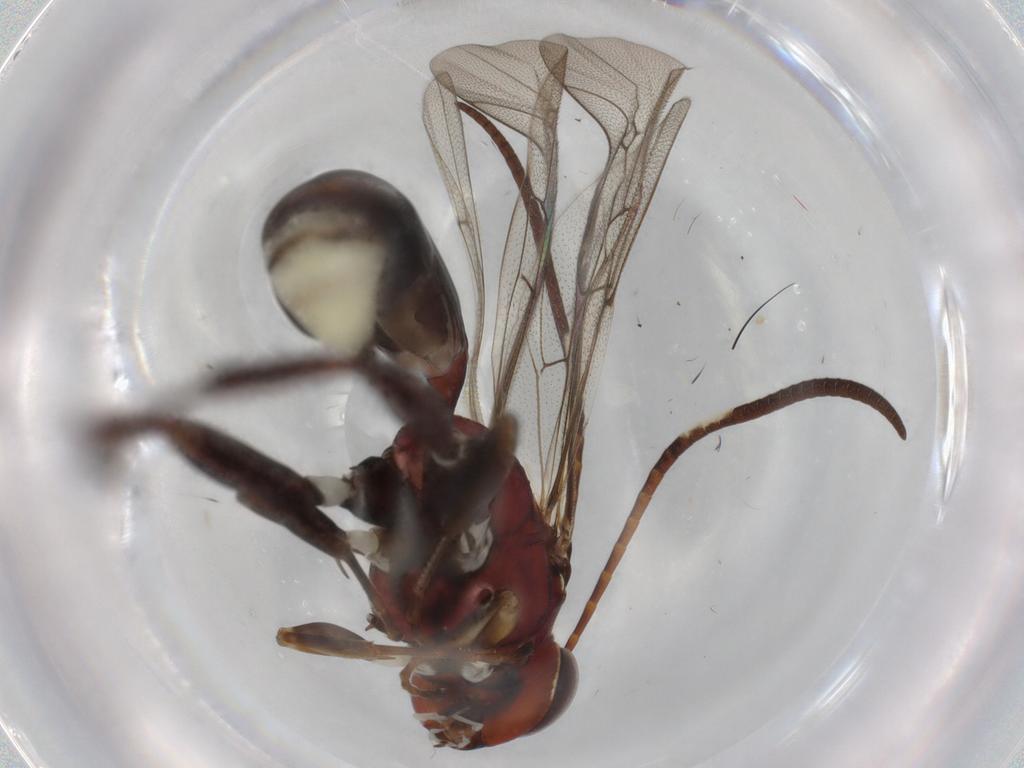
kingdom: Animalia
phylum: Arthropoda
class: Insecta
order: Hymenoptera
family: Ichneumonidae
